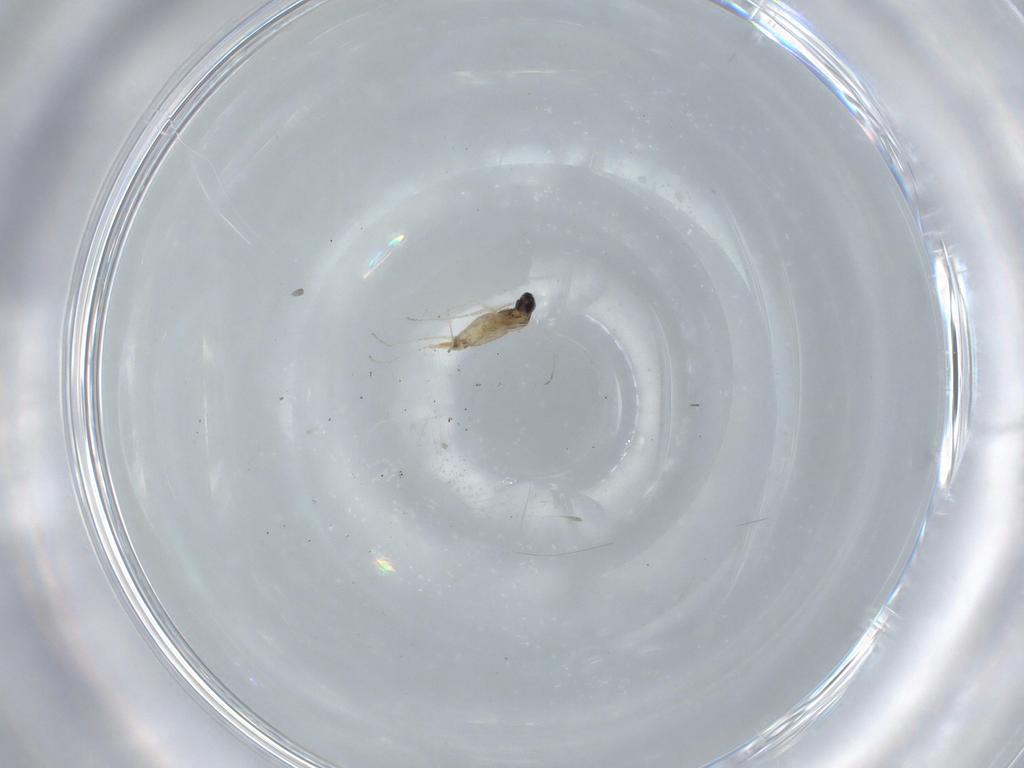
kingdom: Animalia
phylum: Arthropoda
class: Insecta
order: Diptera
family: Cecidomyiidae
